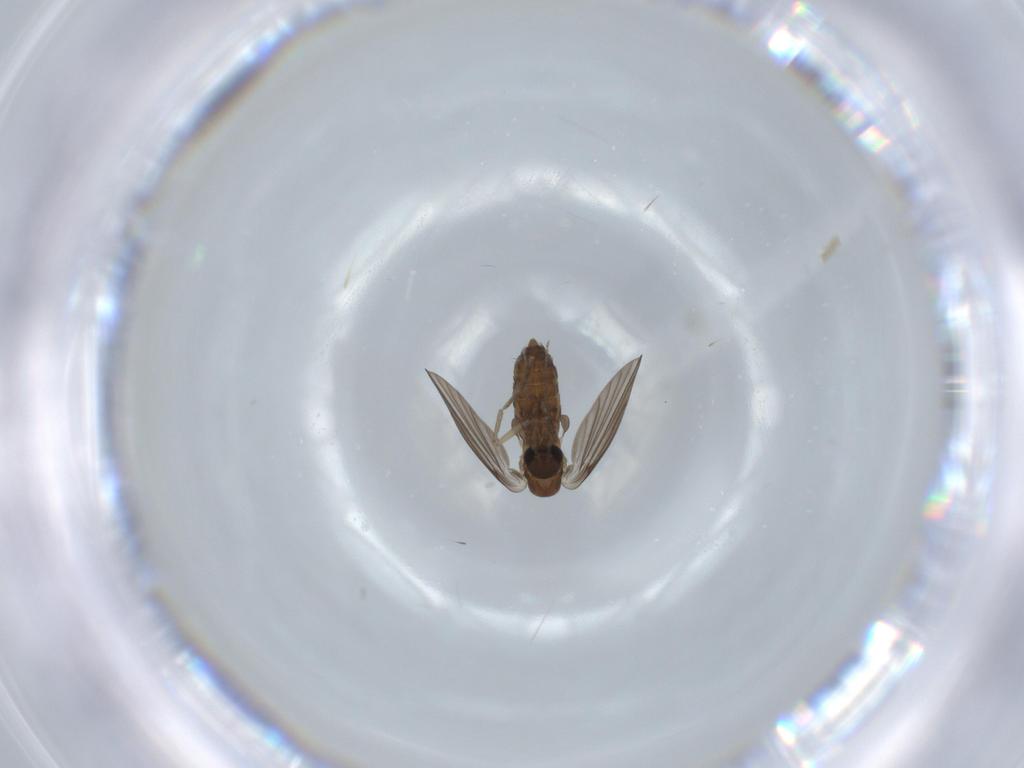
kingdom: Animalia
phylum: Arthropoda
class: Insecta
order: Diptera
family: Psychodidae
